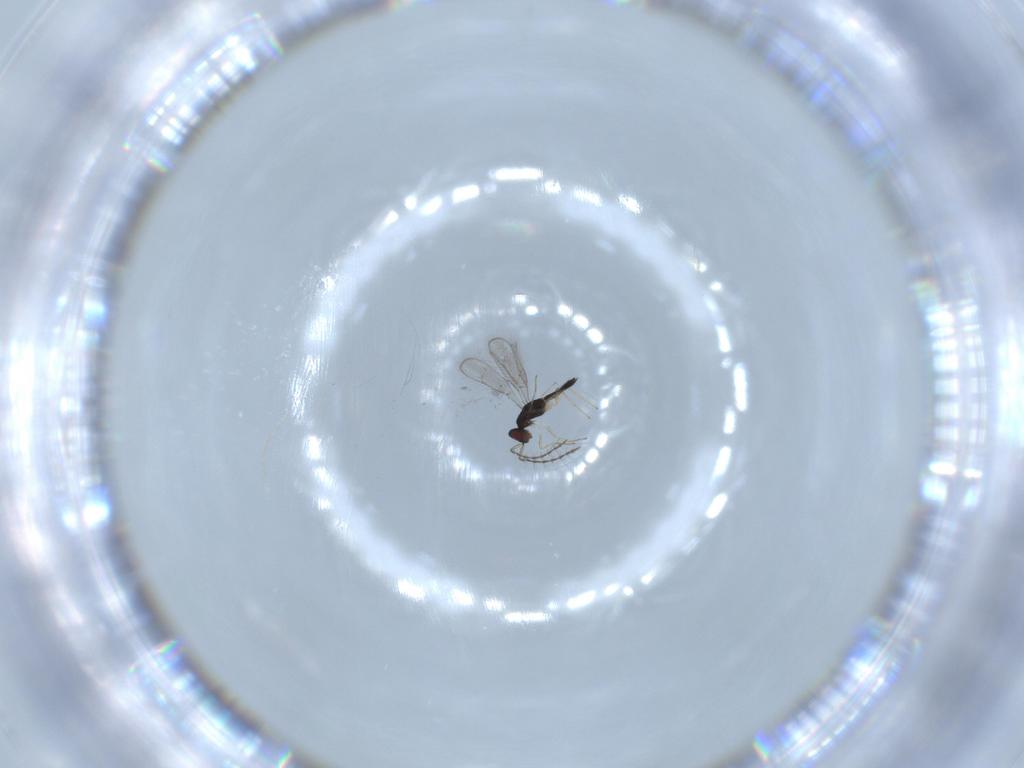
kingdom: Animalia
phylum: Arthropoda
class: Insecta
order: Hymenoptera
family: Pteromalidae
